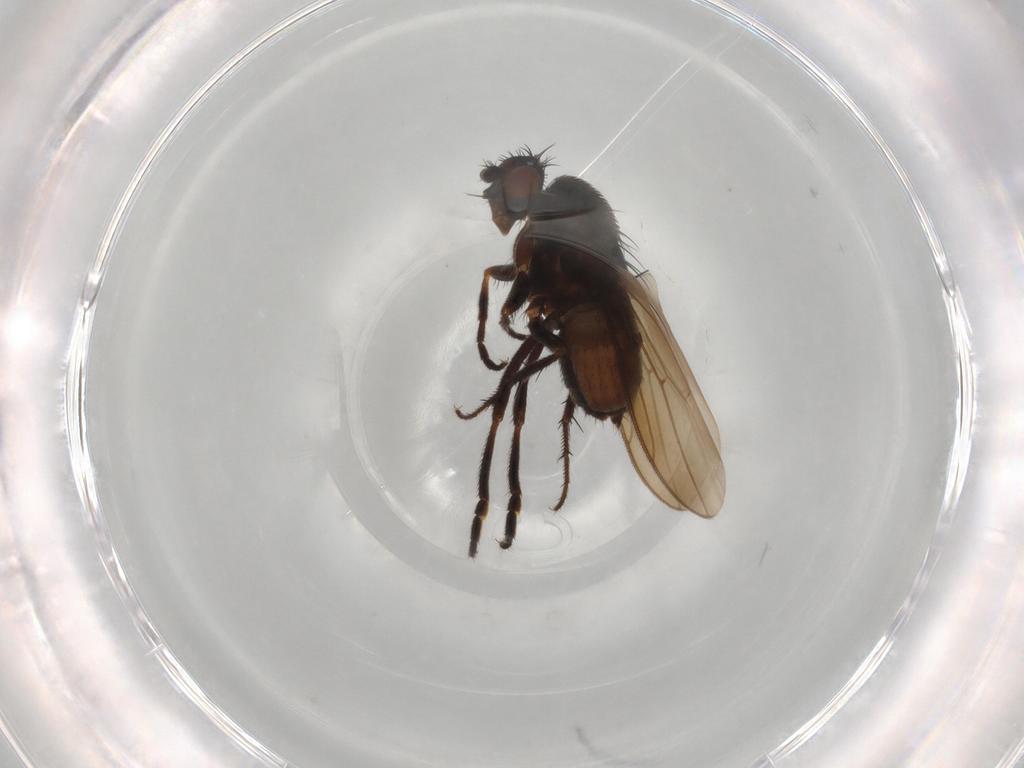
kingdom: Animalia
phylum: Arthropoda
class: Insecta
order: Diptera
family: Sphaeroceridae
